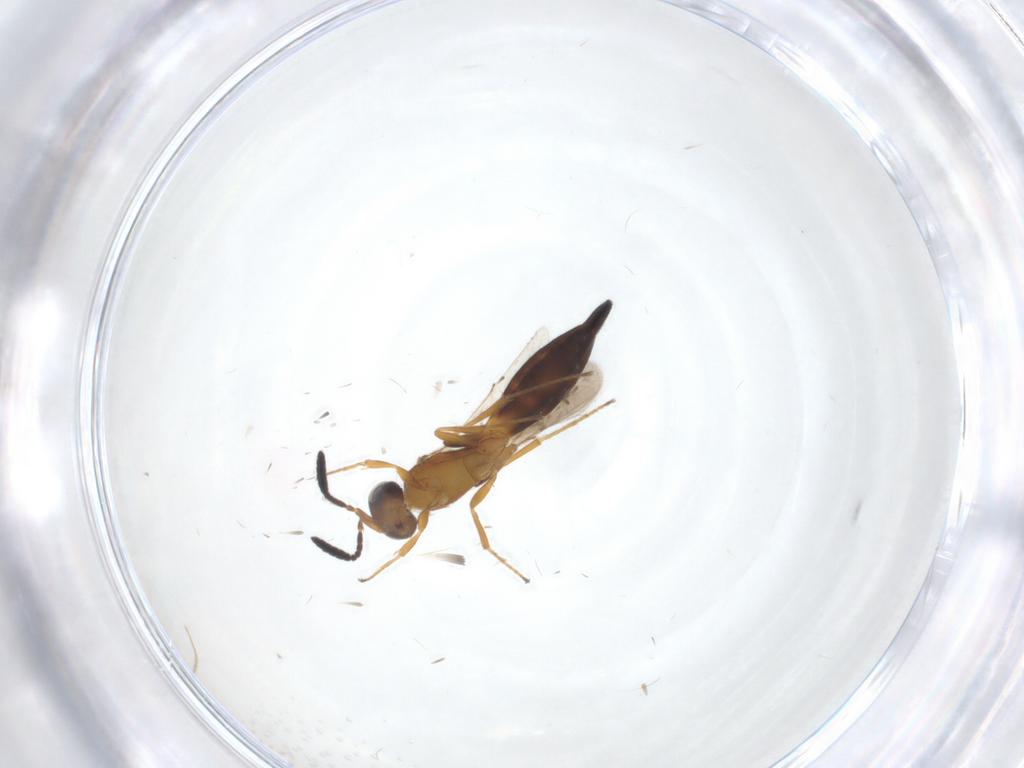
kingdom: Animalia
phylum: Arthropoda
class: Insecta
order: Hymenoptera
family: Scelionidae
